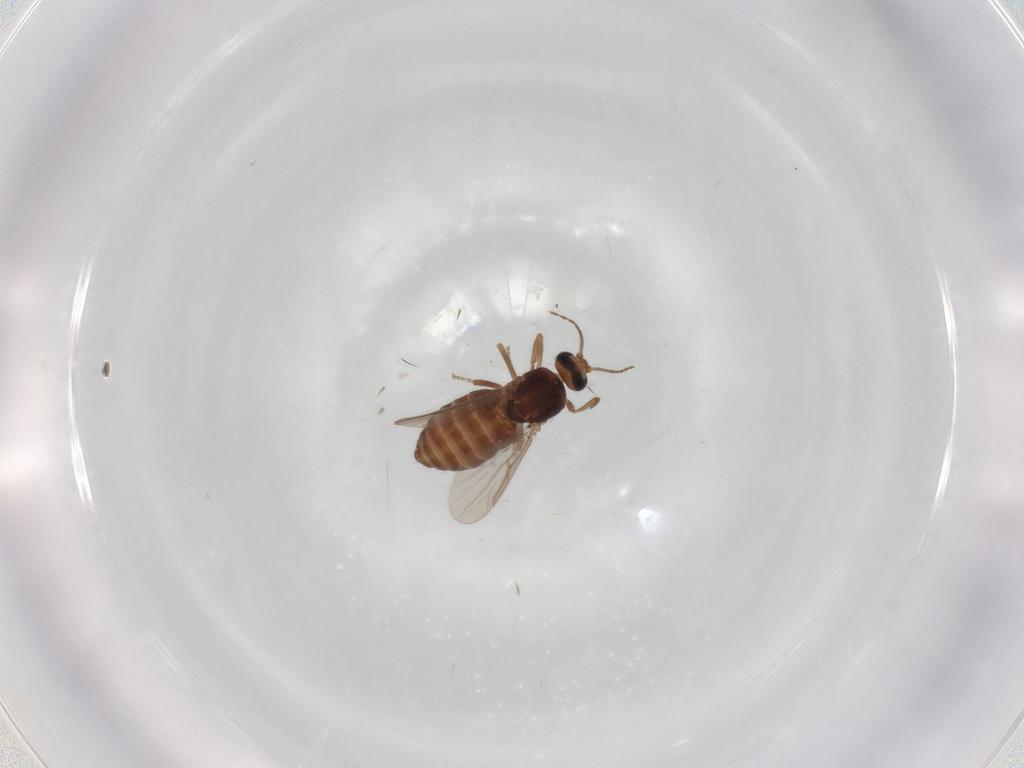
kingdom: Animalia
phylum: Arthropoda
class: Insecta
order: Diptera
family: Ceratopogonidae
